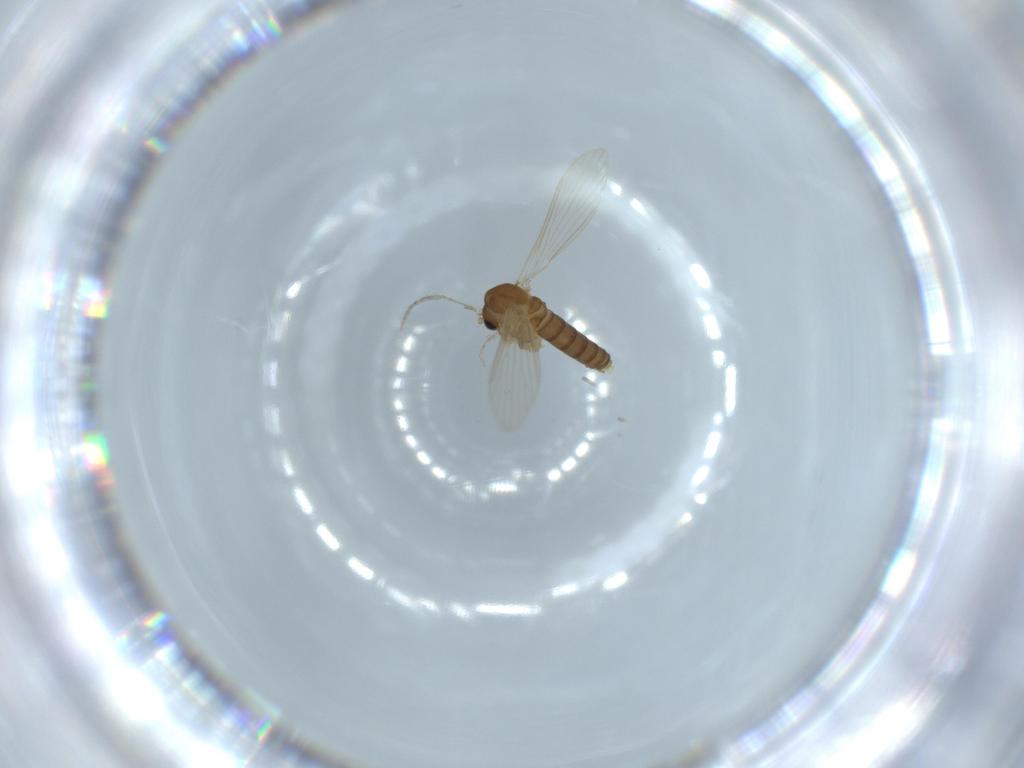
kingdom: Animalia
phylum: Arthropoda
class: Insecta
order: Diptera
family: Psychodidae
